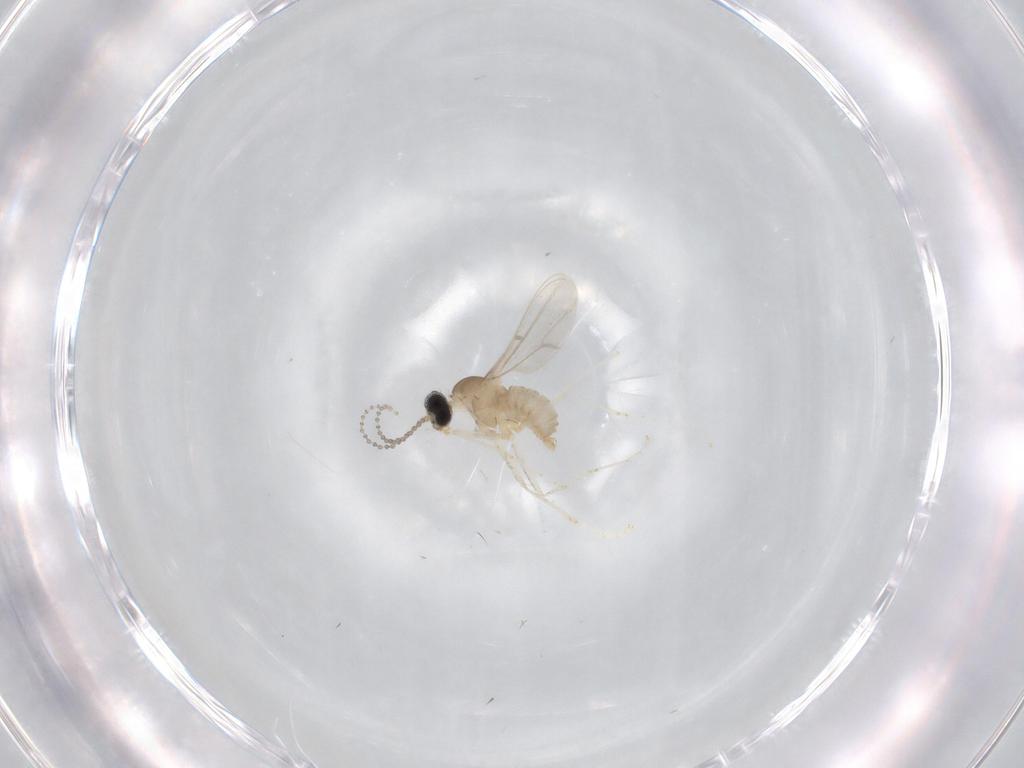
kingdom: Animalia
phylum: Arthropoda
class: Insecta
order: Diptera
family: Cecidomyiidae
